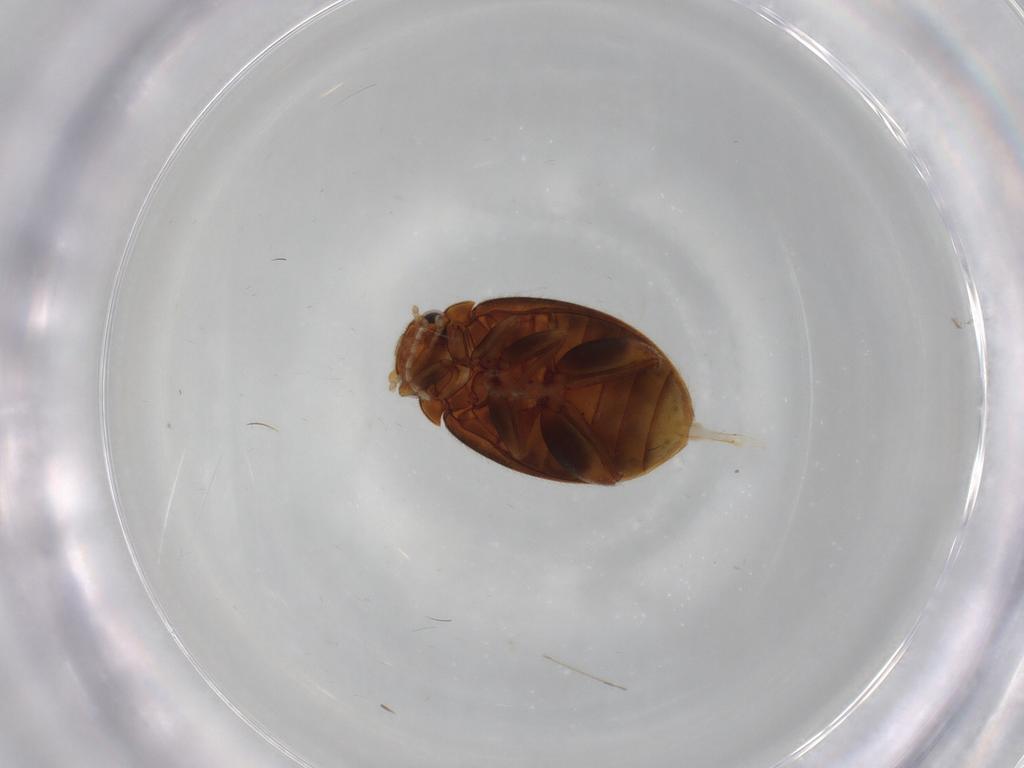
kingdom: Animalia
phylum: Arthropoda
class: Insecta
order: Coleoptera
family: Scirtidae
